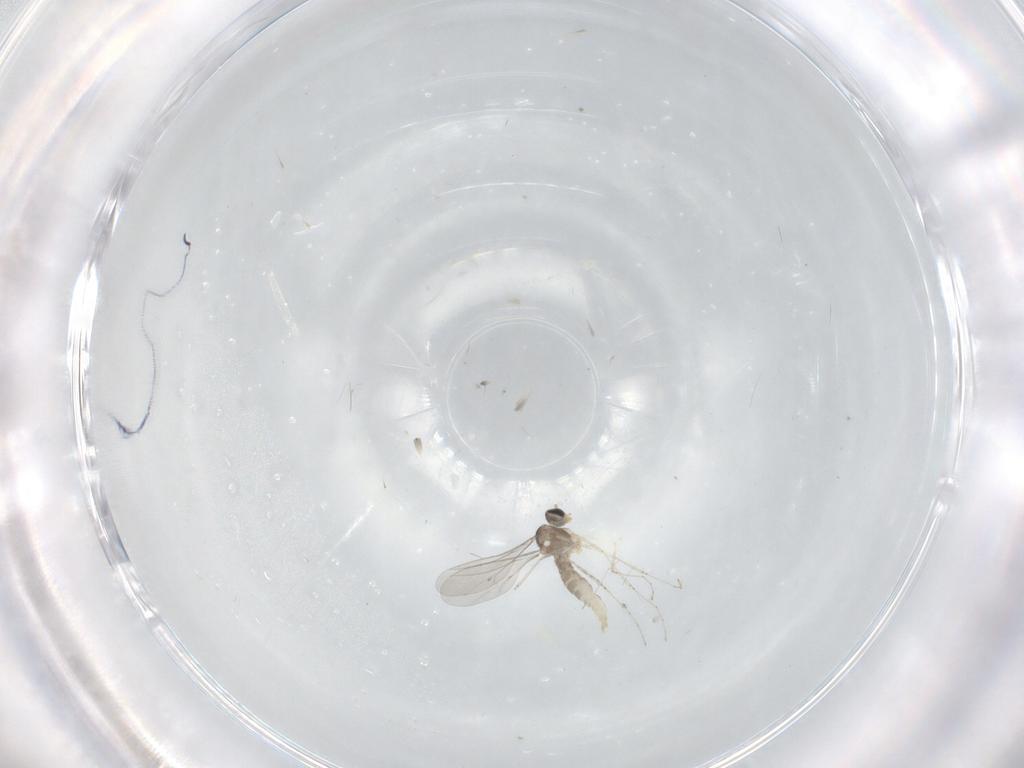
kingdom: Animalia
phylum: Arthropoda
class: Insecta
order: Diptera
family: Cecidomyiidae
